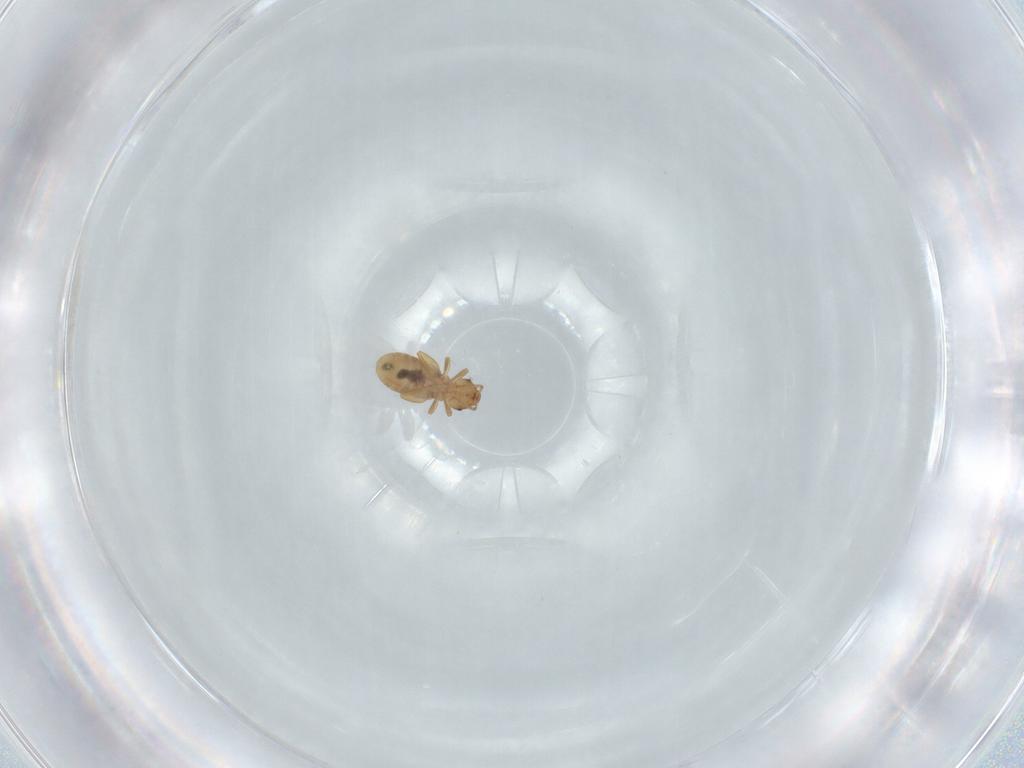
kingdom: Animalia
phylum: Arthropoda
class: Insecta
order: Psocodea
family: Liposcelididae
